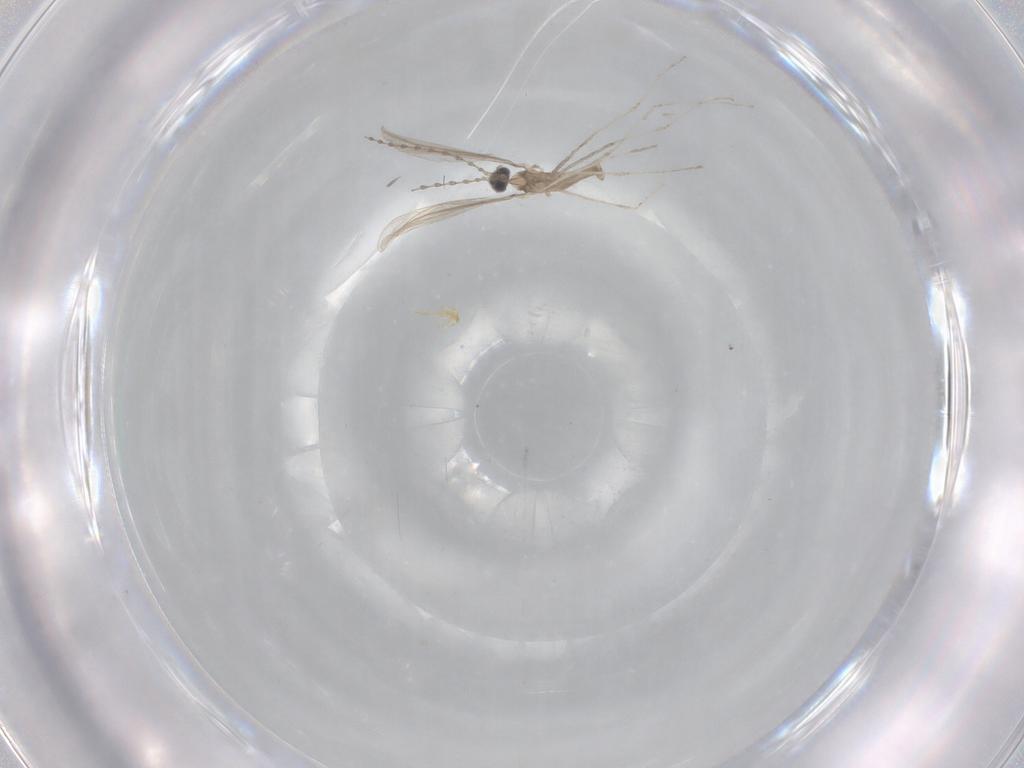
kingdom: Animalia
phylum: Arthropoda
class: Insecta
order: Diptera
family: Cecidomyiidae
